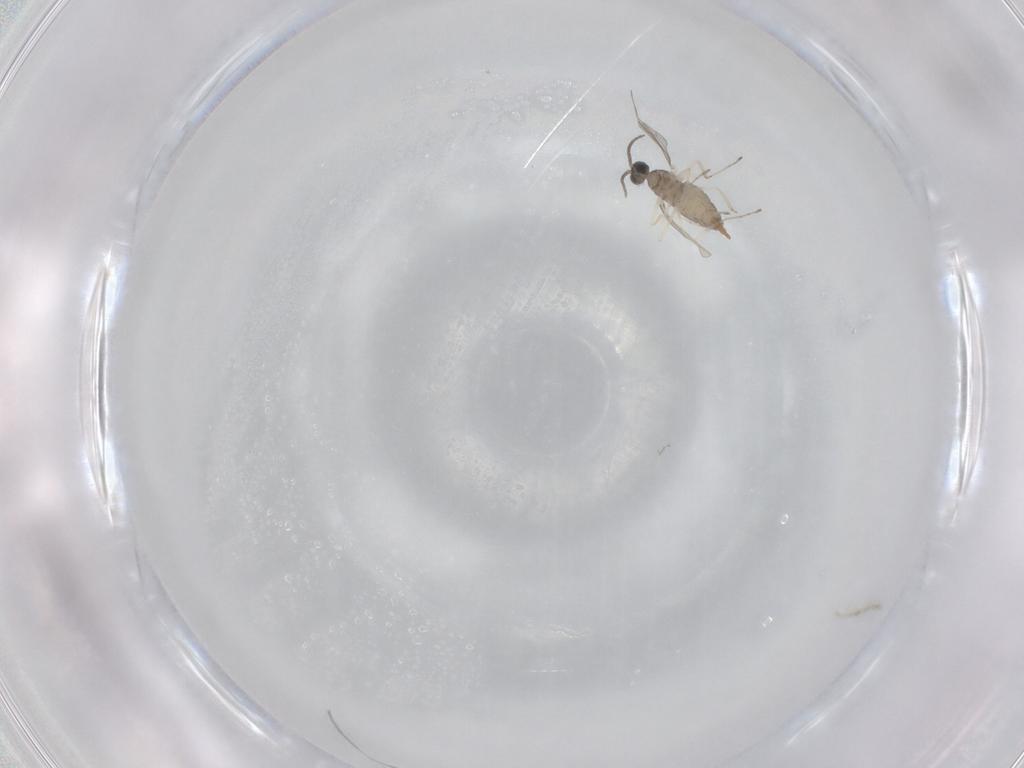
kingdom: Animalia
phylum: Arthropoda
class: Insecta
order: Diptera
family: Cecidomyiidae
